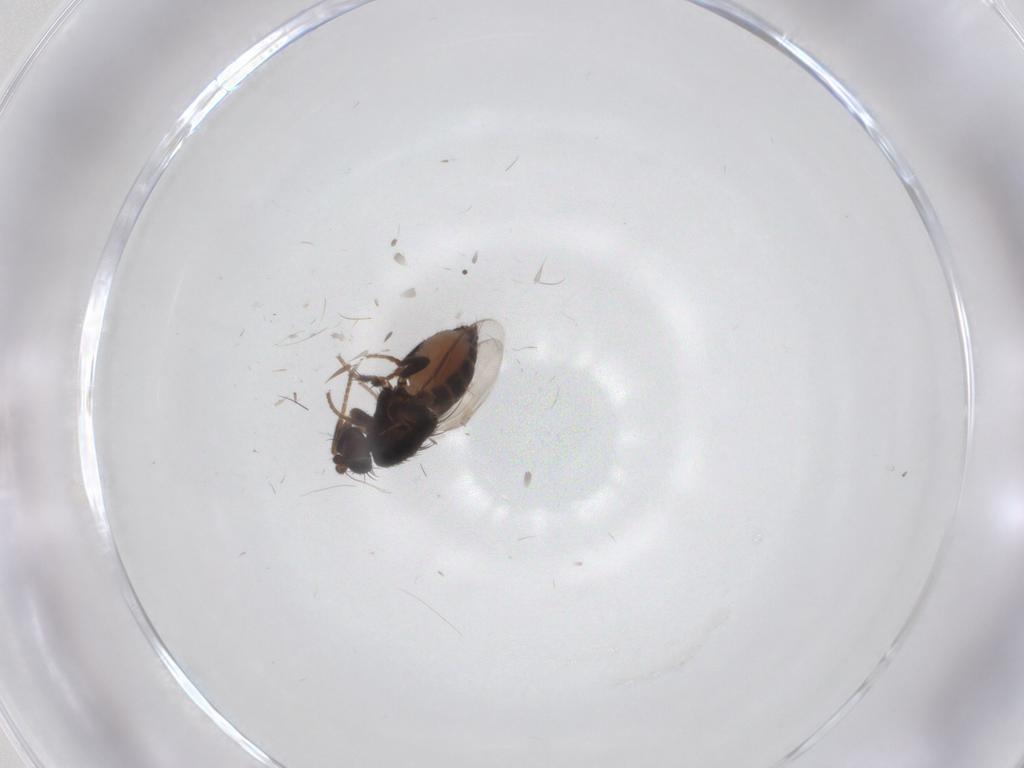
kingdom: Animalia
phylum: Arthropoda
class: Insecta
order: Diptera
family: Sphaeroceridae
